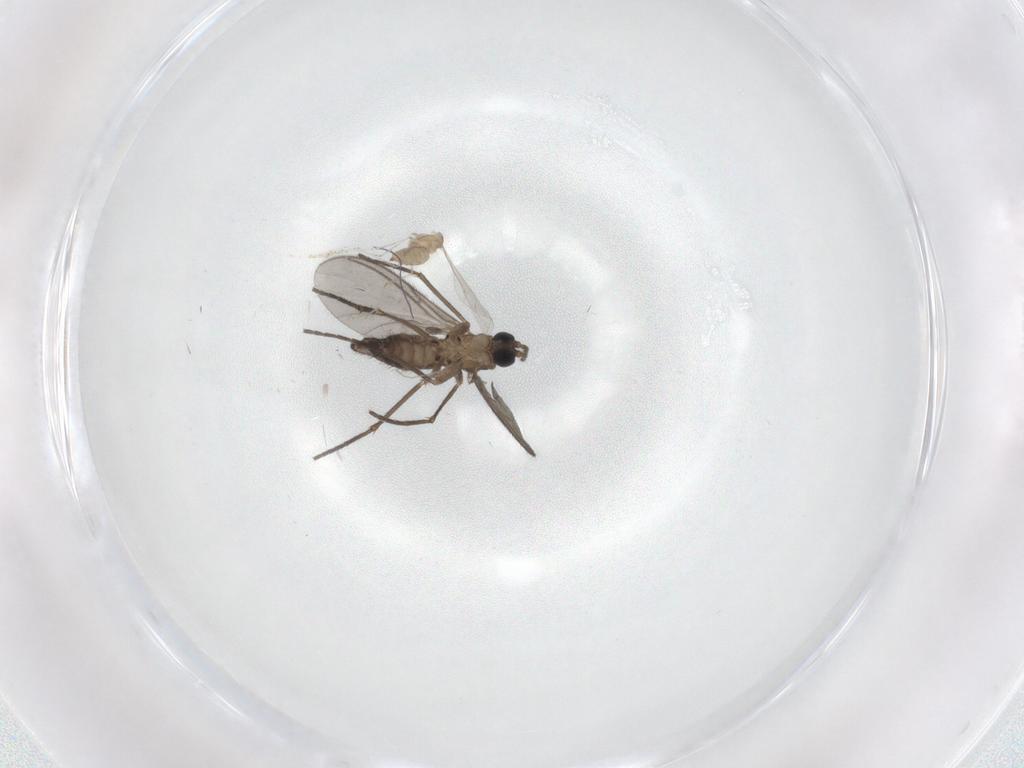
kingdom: Animalia
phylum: Arthropoda
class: Insecta
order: Diptera
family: Sciaridae
